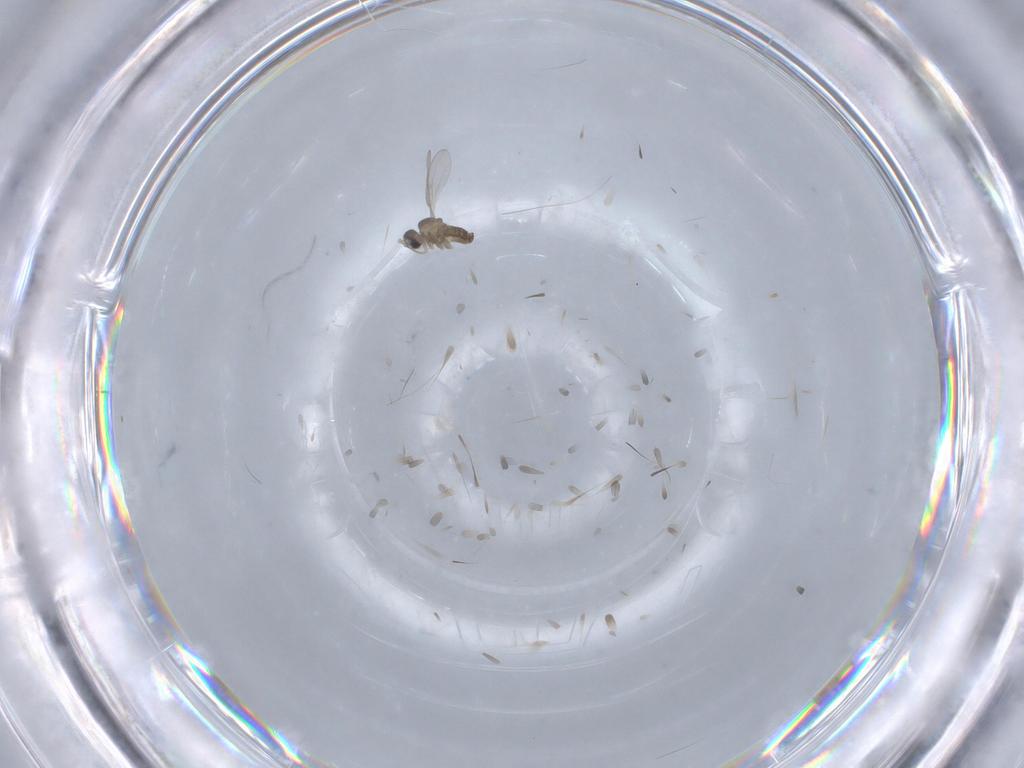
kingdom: Animalia
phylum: Arthropoda
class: Insecta
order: Diptera
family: Cecidomyiidae
